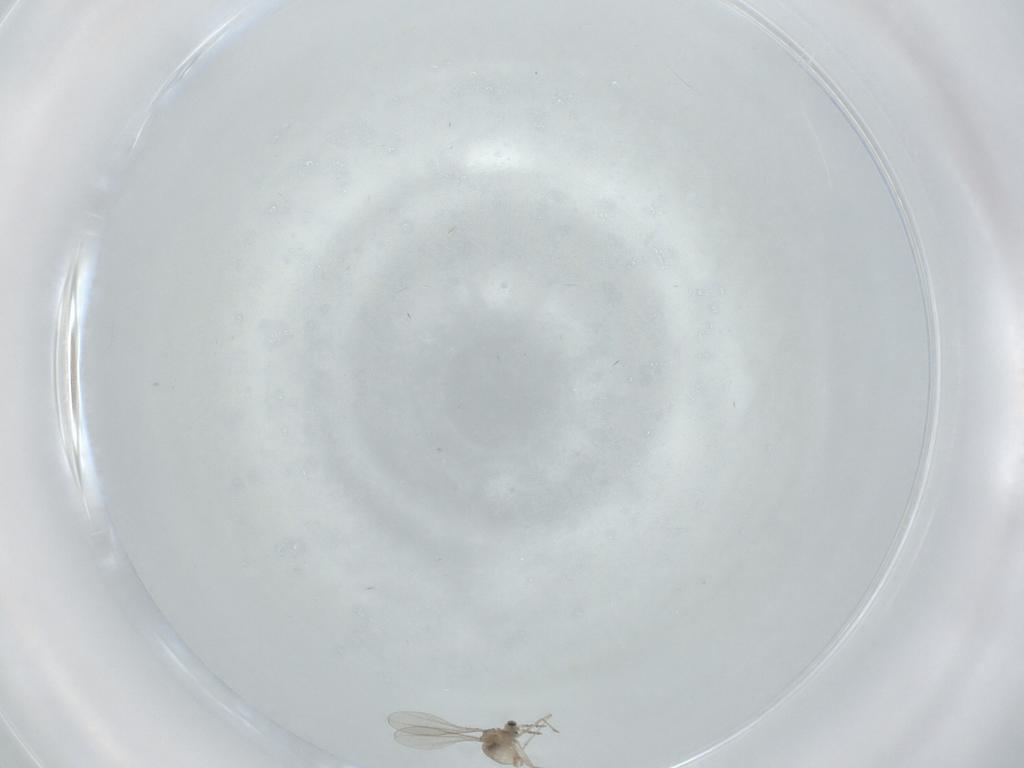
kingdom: Animalia
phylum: Arthropoda
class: Insecta
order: Diptera
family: Cecidomyiidae
